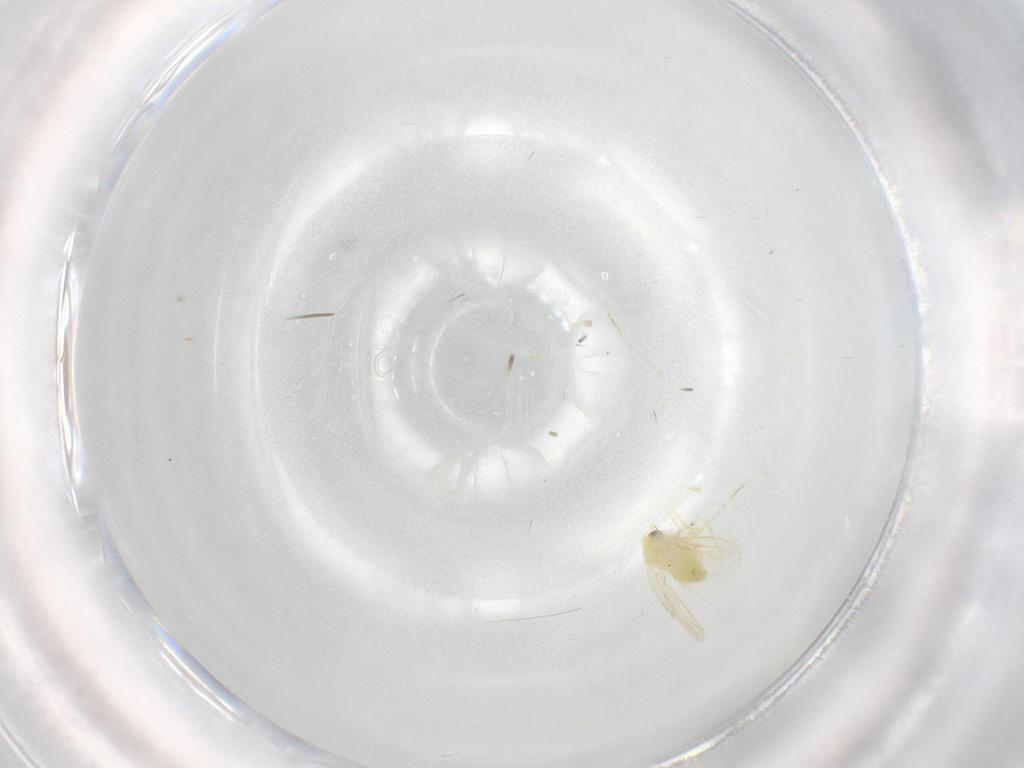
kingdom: Animalia
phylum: Arthropoda
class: Insecta
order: Hemiptera
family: Aleyrodidae
